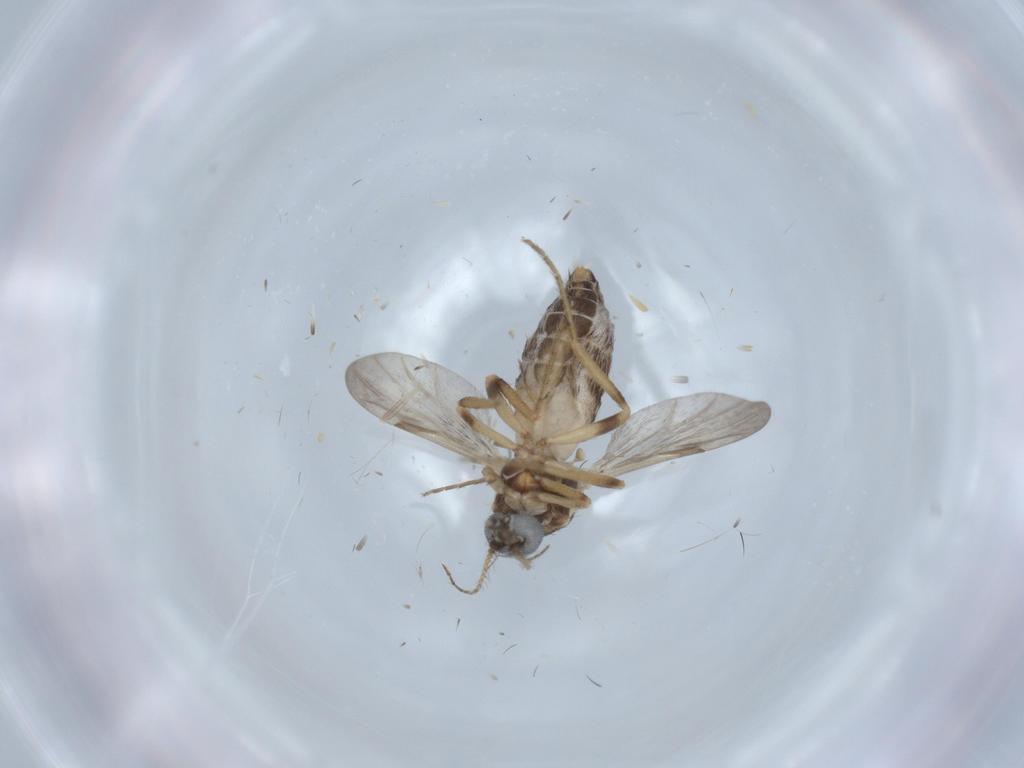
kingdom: Animalia
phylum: Arthropoda
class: Insecta
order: Diptera
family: Ceratopogonidae
